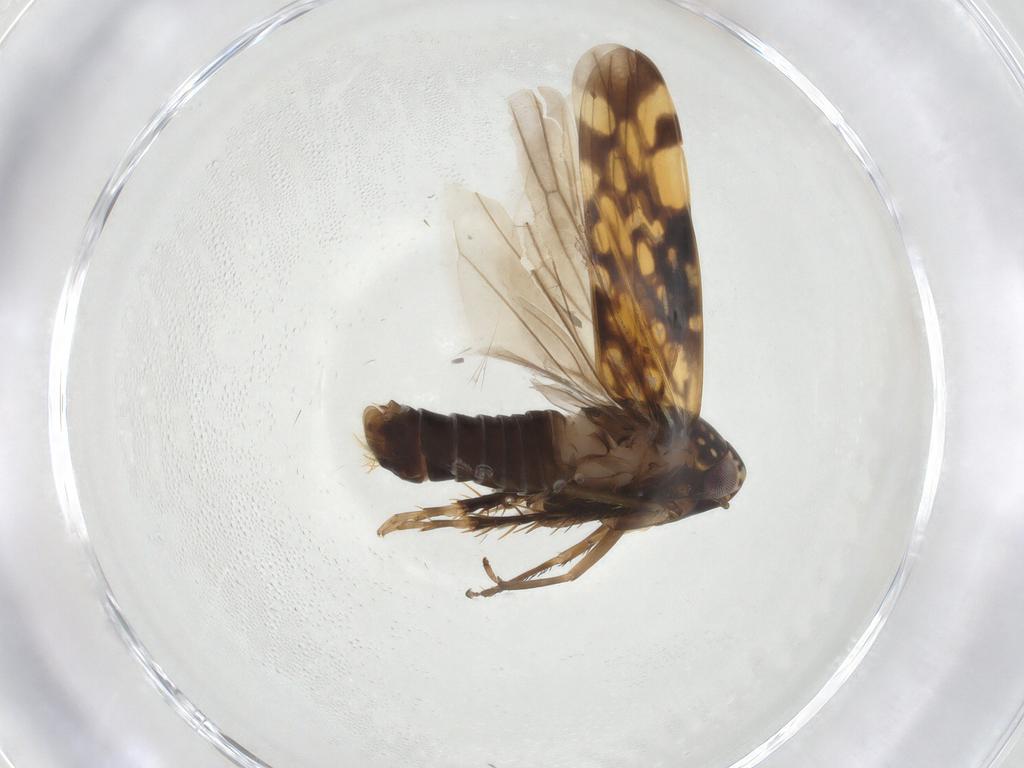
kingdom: Animalia
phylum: Arthropoda
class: Insecta
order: Hemiptera
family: Cicadellidae
